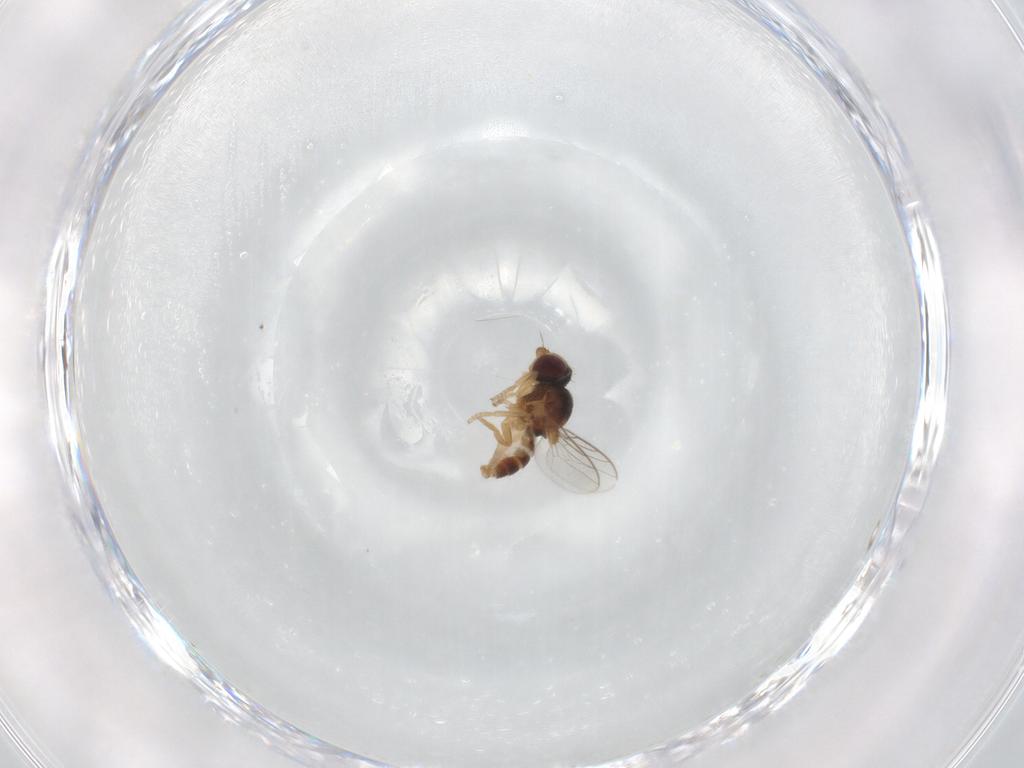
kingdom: Animalia
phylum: Arthropoda
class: Insecta
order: Diptera
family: Chloropidae
